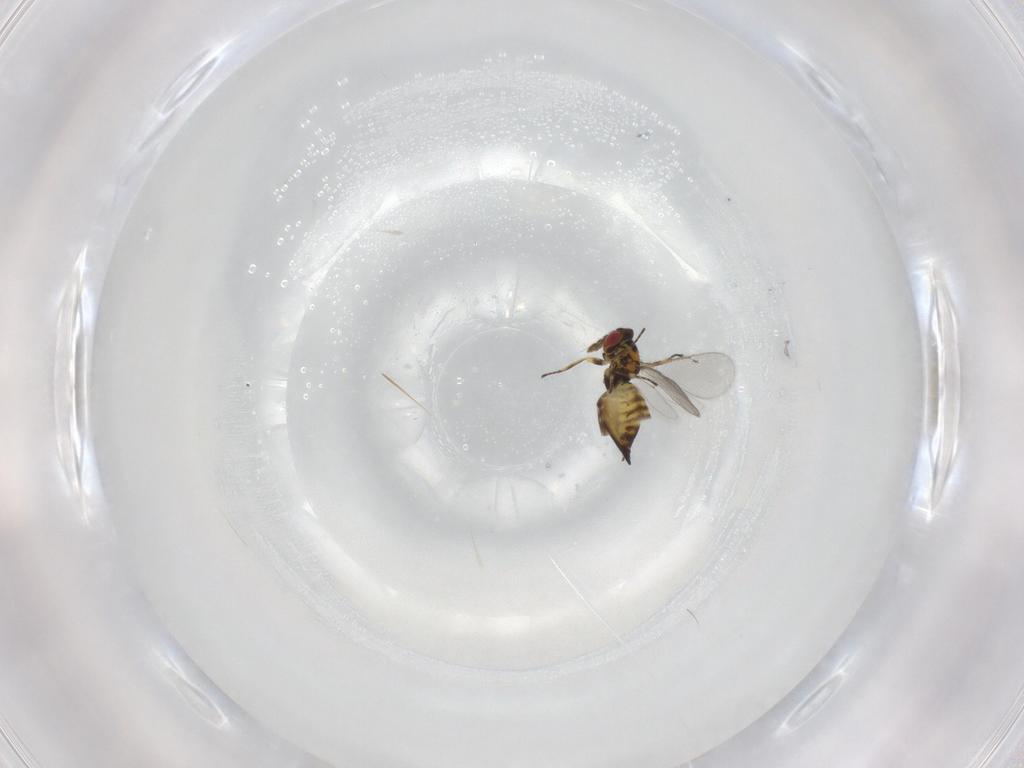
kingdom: Animalia
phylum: Arthropoda
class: Insecta
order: Hymenoptera
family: Eulophidae
